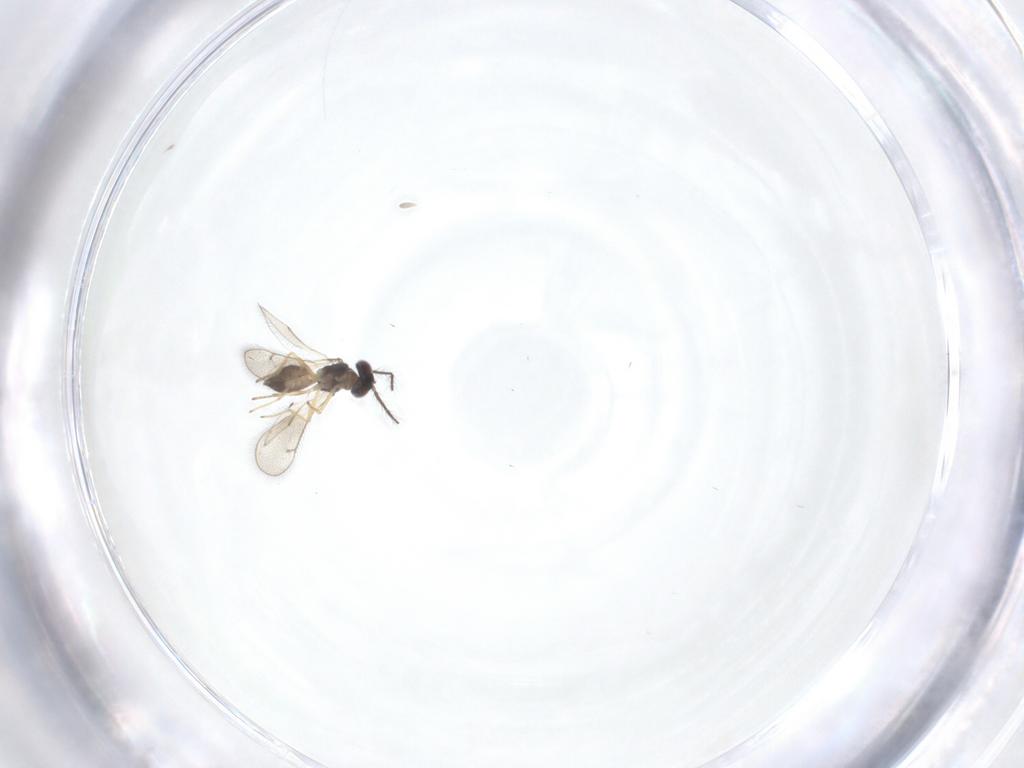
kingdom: Animalia
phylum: Arthropoda
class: Insecta
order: Hymenoptera
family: Eulophidae
